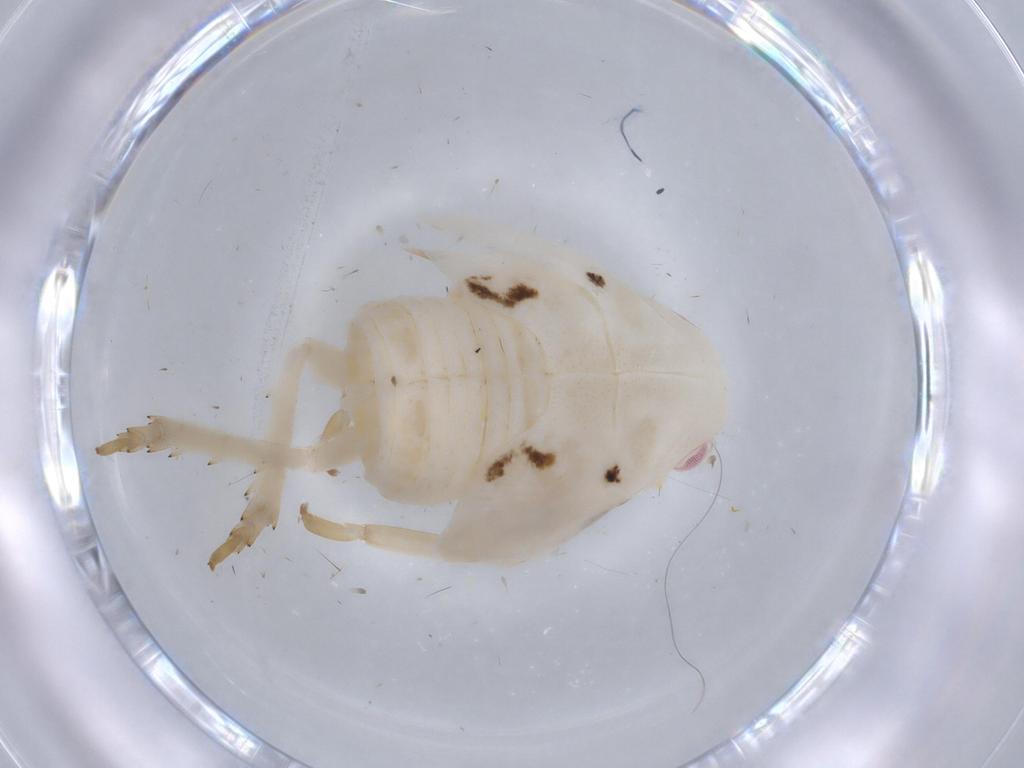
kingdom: Animalia
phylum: Arthropoda
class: Insecta
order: Hemiptera
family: Flatidae
